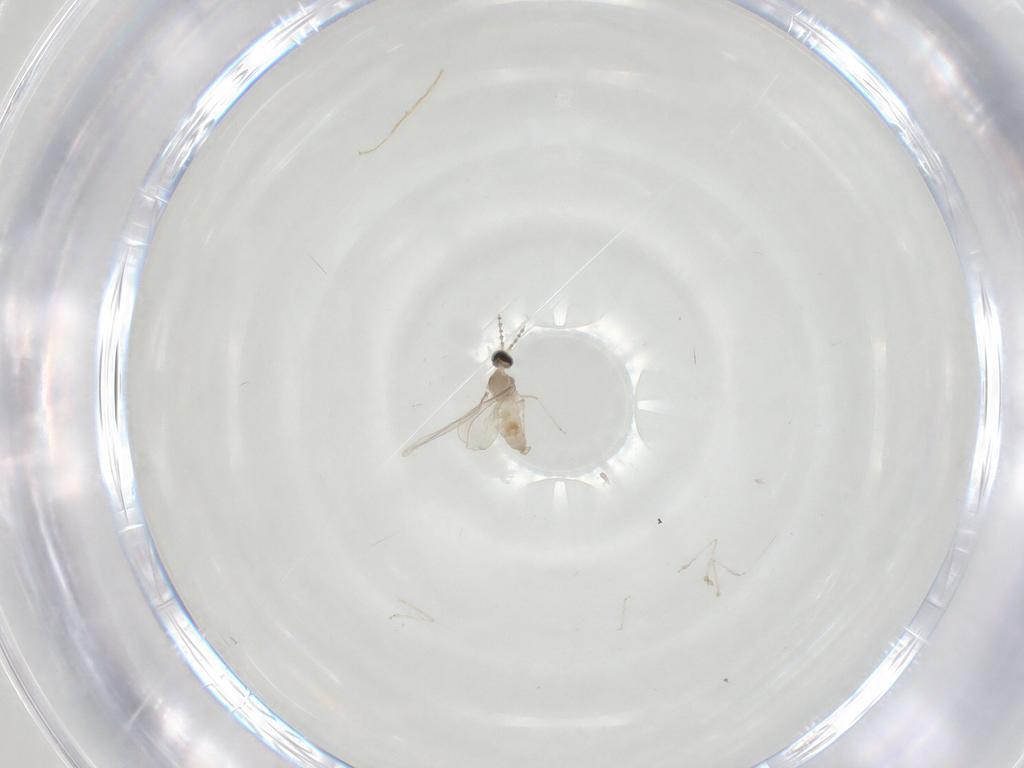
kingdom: Animalia
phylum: Arthropoda
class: Insecta
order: Diptera
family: Cecidomyiidae
